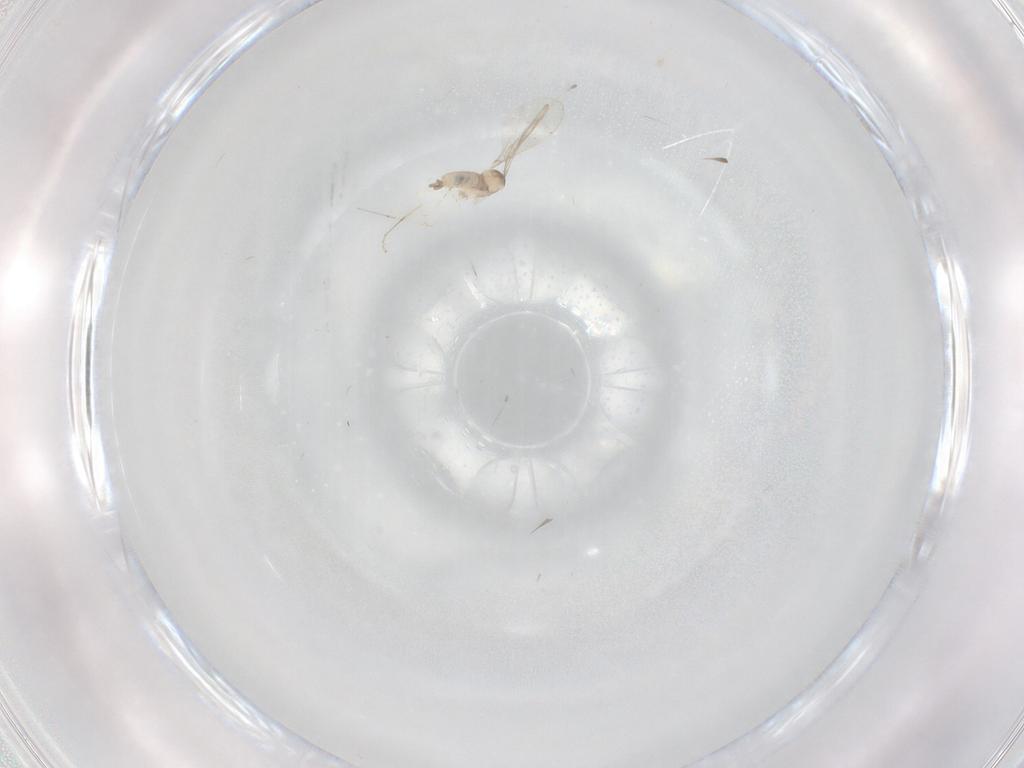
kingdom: Animalia
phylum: Arthropoda
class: Insecta
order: Diptera
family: Cecidomyiidae
